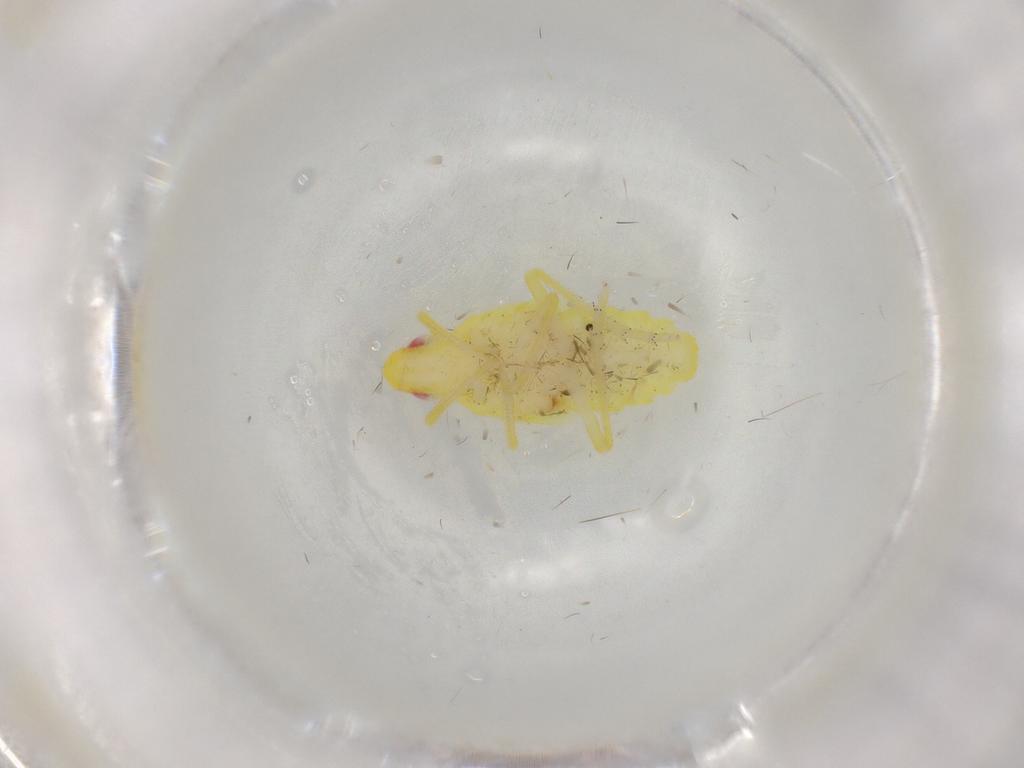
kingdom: Animalia
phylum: Arthropoda
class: Insecta
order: Hemiptera
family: Tropiduchidae
